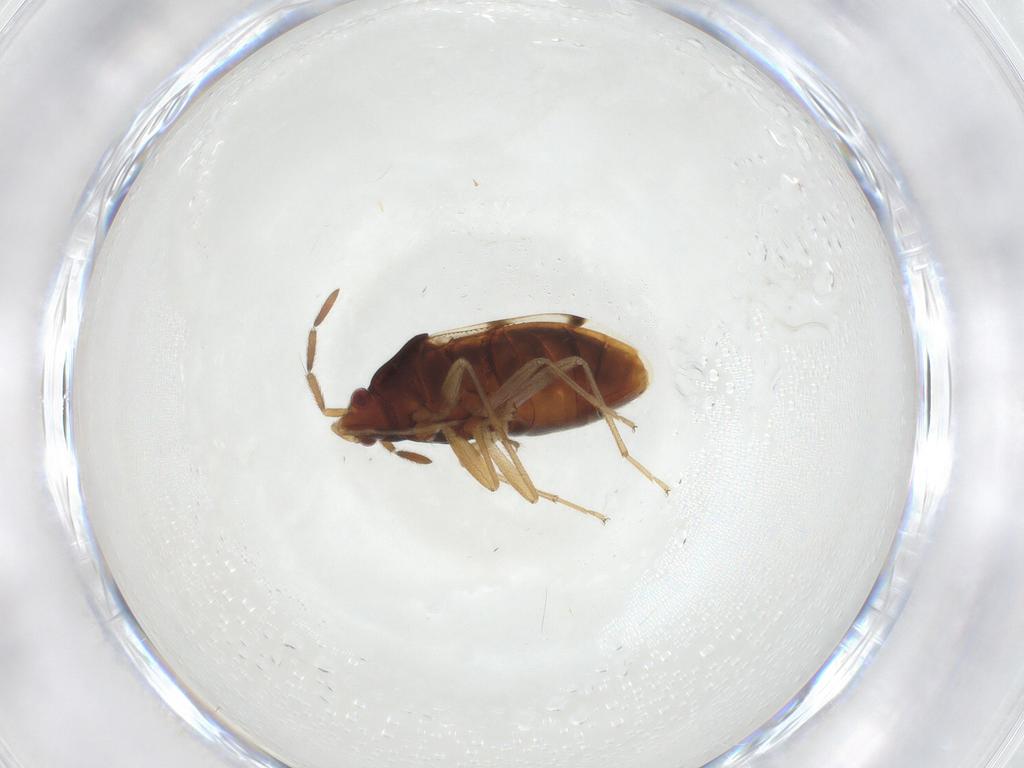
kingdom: Animalia
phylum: Arthropoda
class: Insecta
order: Hemiptera
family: Rhyparochromidae
